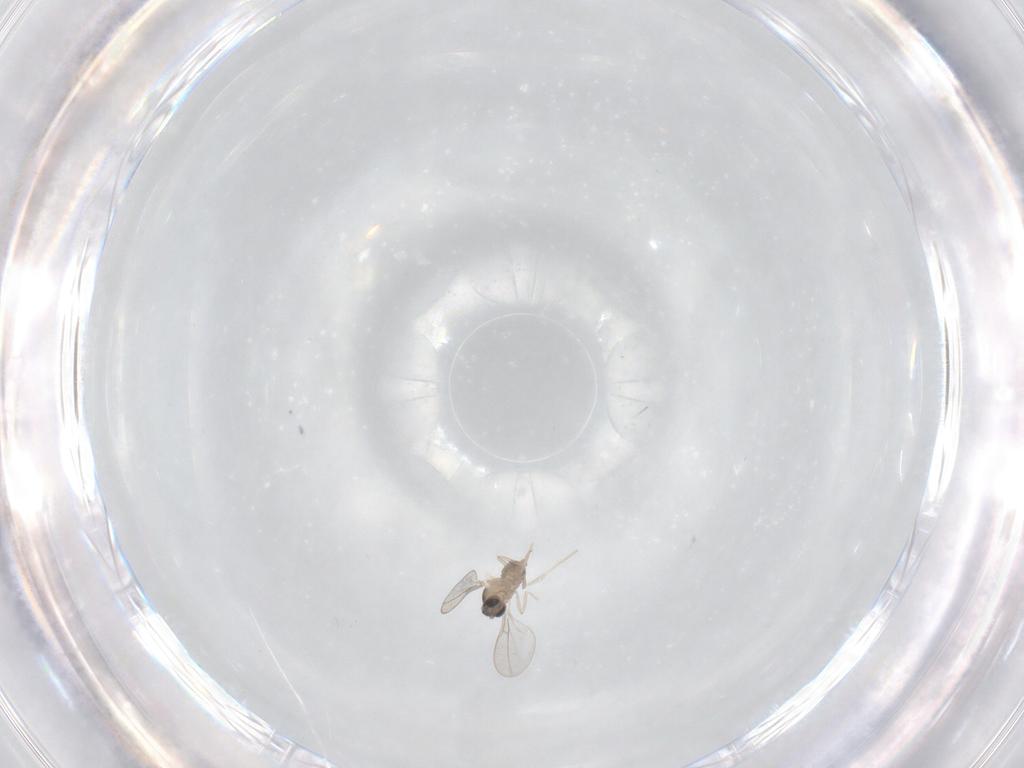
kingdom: Animalia
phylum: Arthropoda
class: Insecta
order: Diptera
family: Cecidomyiidae
